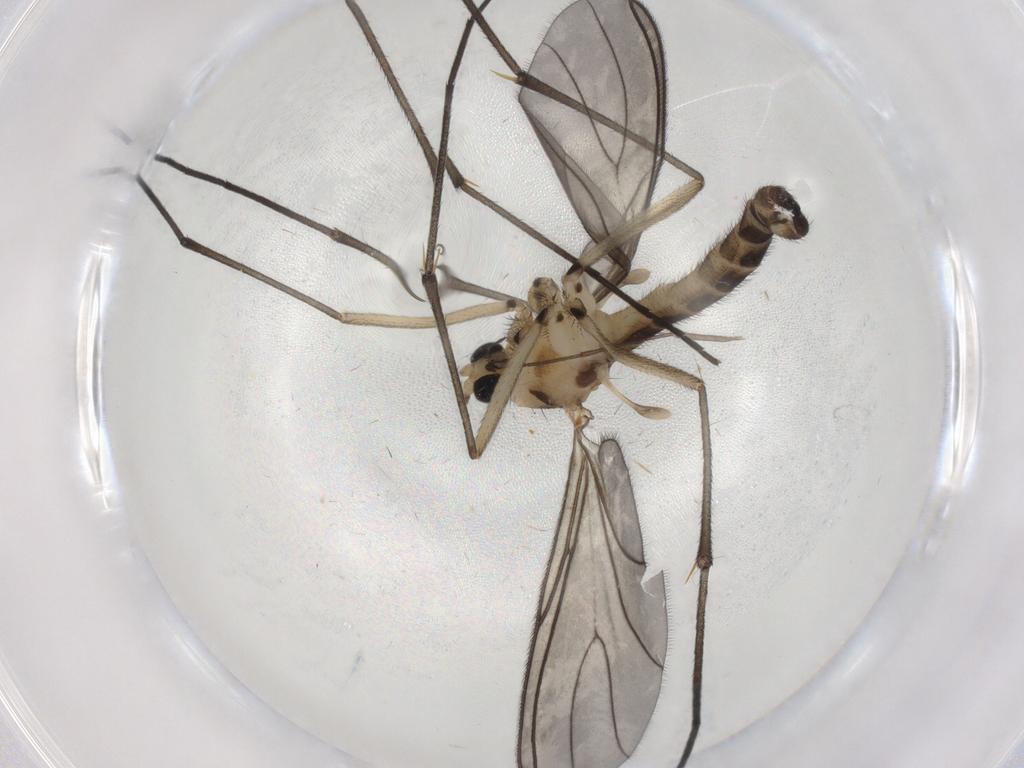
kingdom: Animalia
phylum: Arthropoda
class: Insecta
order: Diptera
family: Sciaridae
